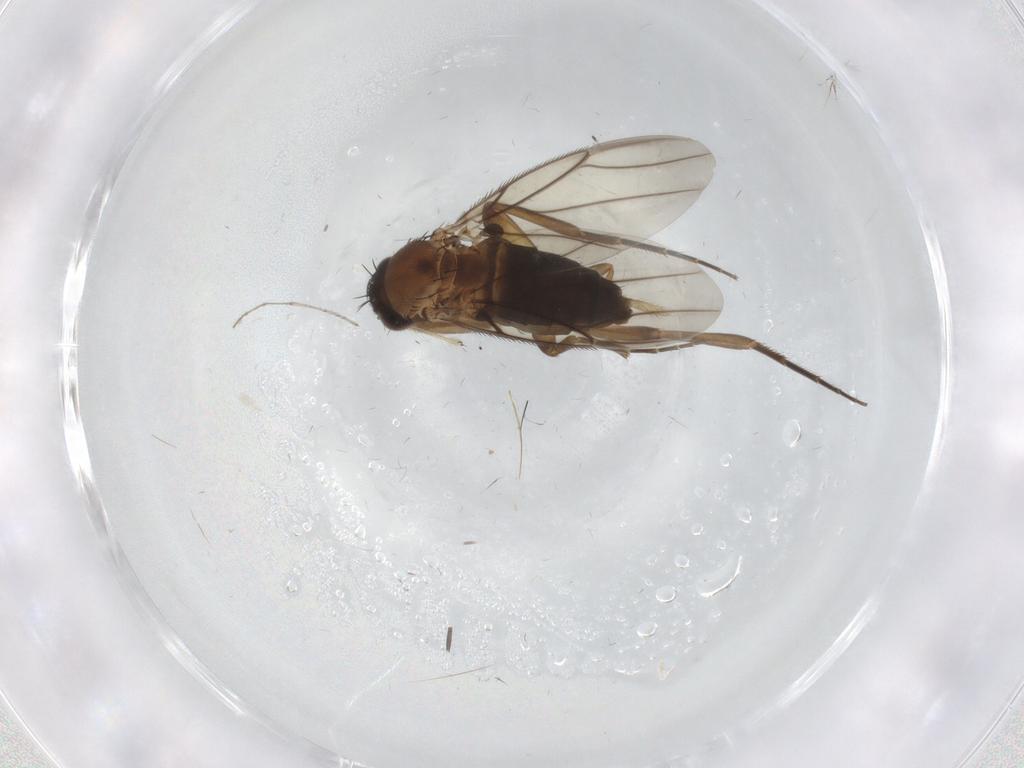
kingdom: Animalia
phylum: Arthropoda
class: Insecta
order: Diptera
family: Phoridae
